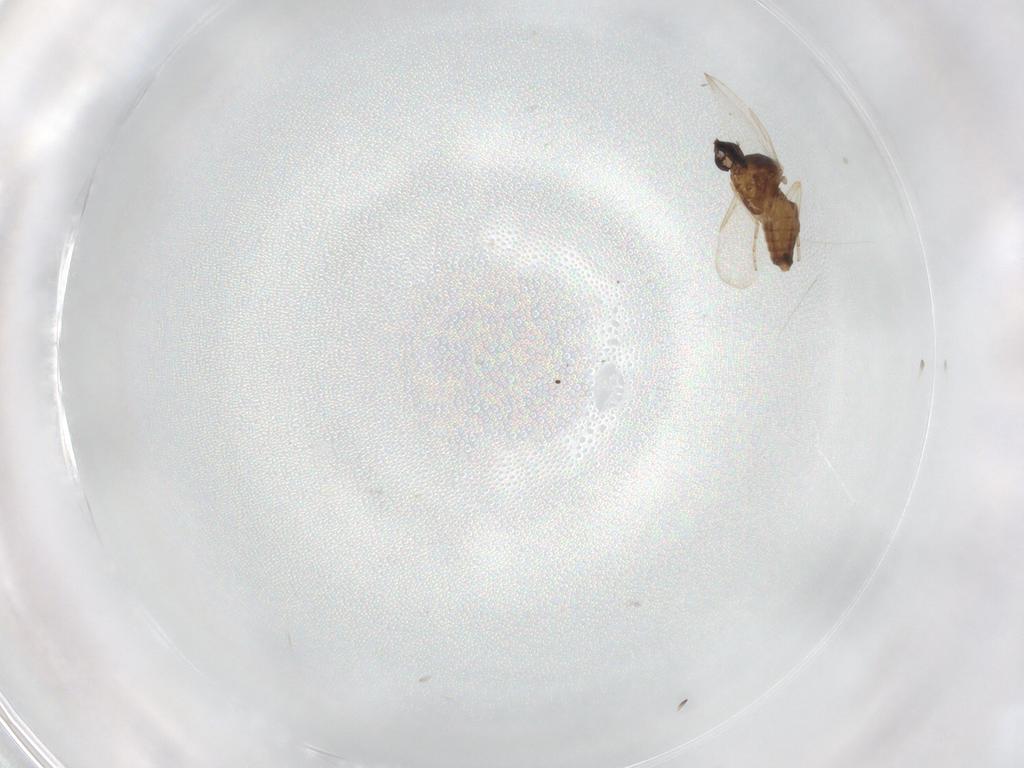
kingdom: Animalia
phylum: Arthropoda
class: Insecta
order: Diptera
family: Ceratopogonidae
